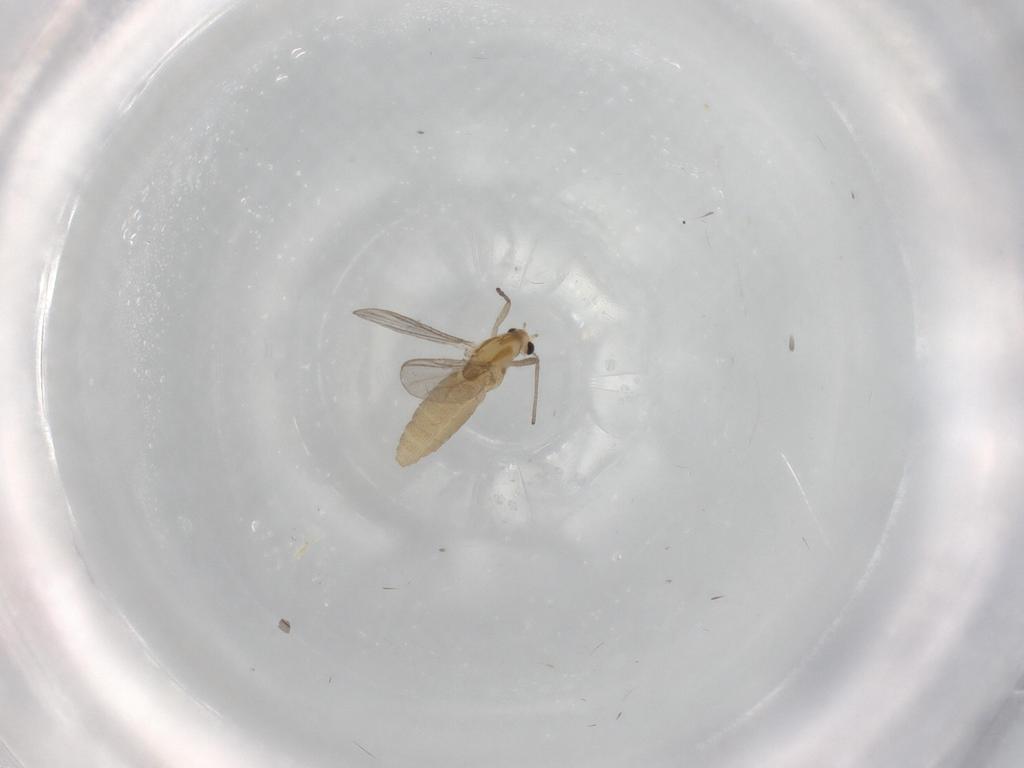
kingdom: Animalia
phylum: Arthropoda
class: Insecta
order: Diptera
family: Chironomidae
